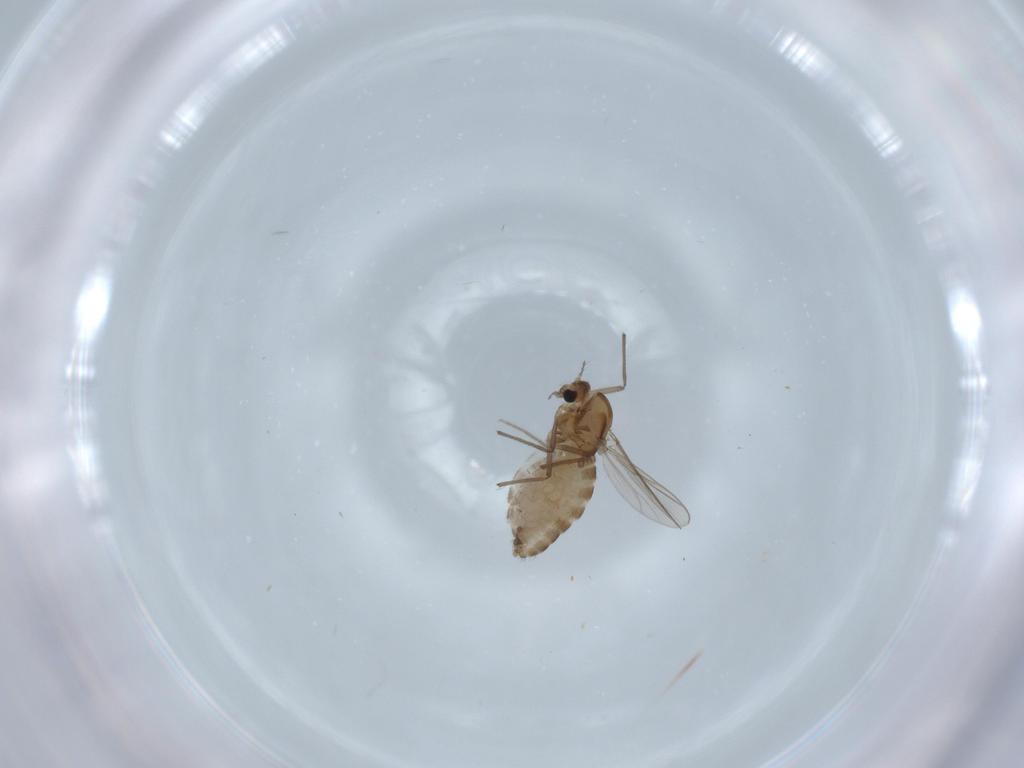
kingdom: Animalia
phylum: Arthropoda
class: Insecta
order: Diptera
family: Chironomidae
